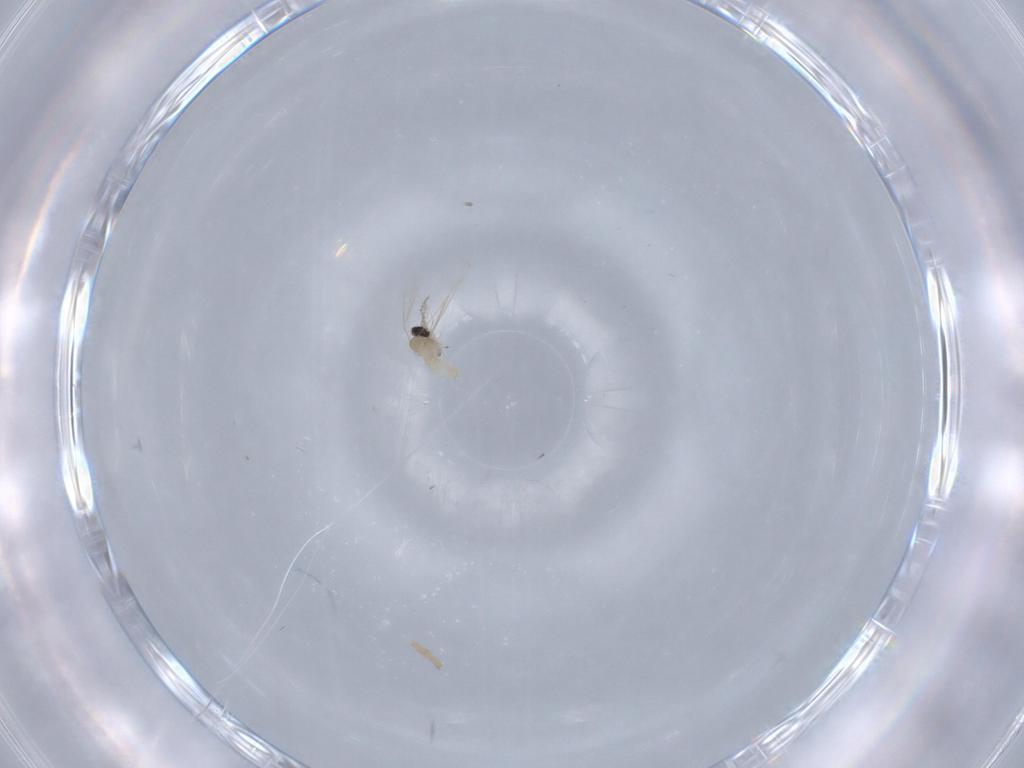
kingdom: Animalia
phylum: Arthropoda
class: Insecta
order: Diptera
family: Cecidomyiidae
